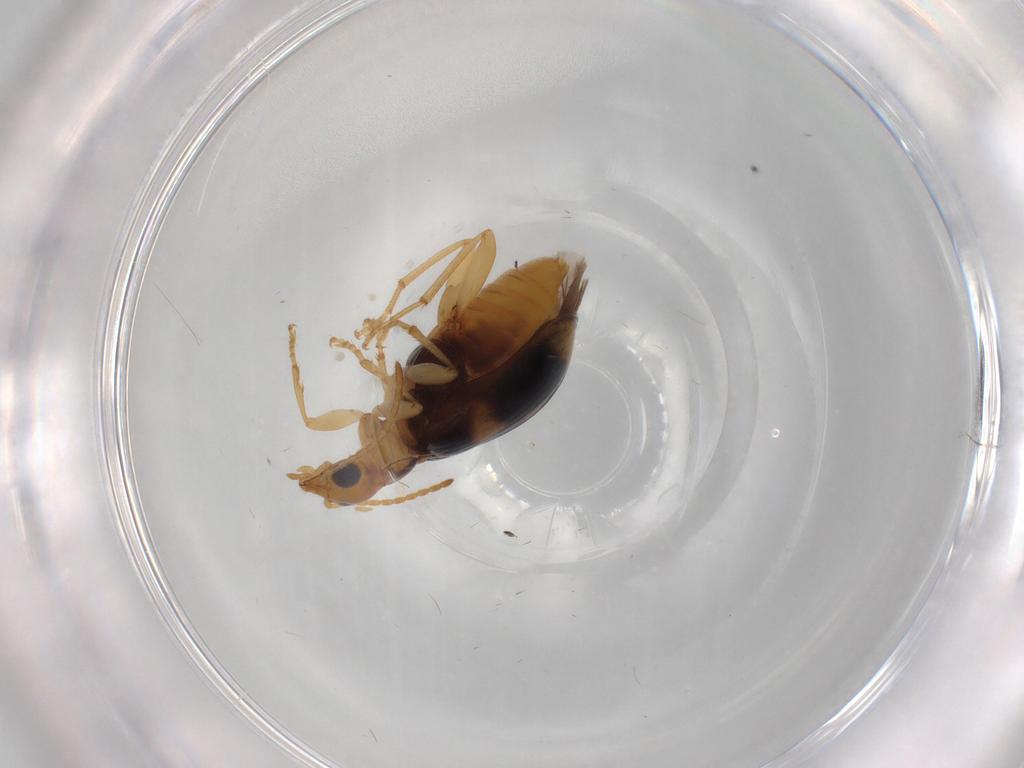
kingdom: Animalia
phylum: Arthropoda
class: Insecta
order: Coleoptera
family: Carabidae
